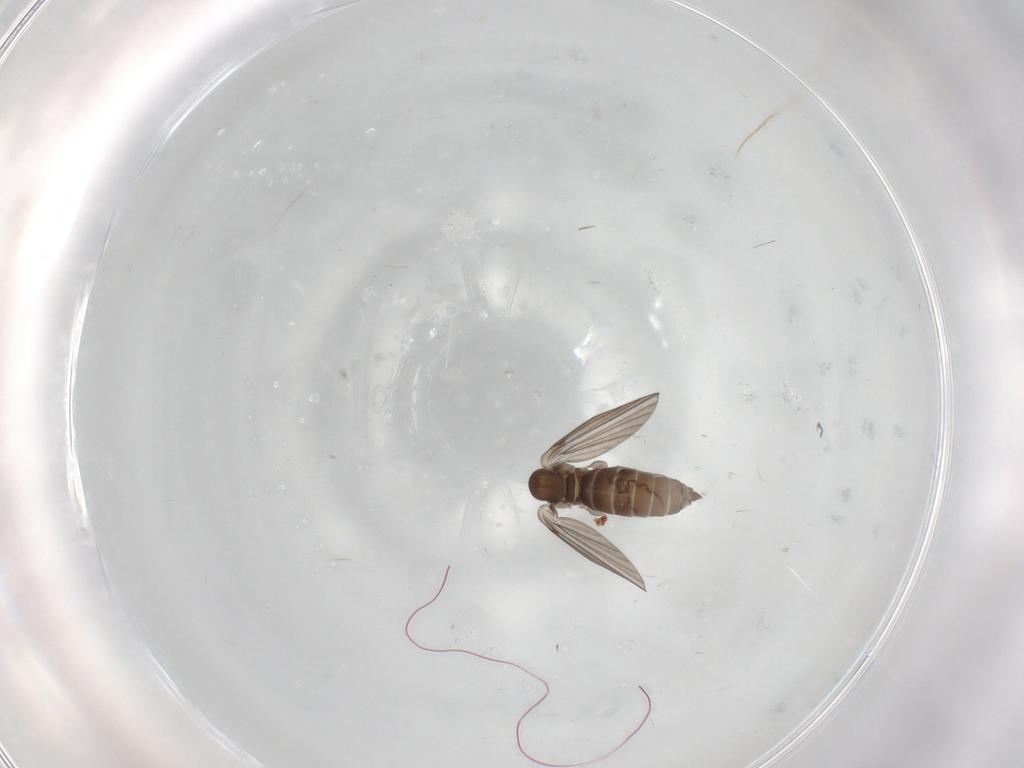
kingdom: Animalia
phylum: Arthropoda
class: Insecta
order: Diptera
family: Psychodidae
